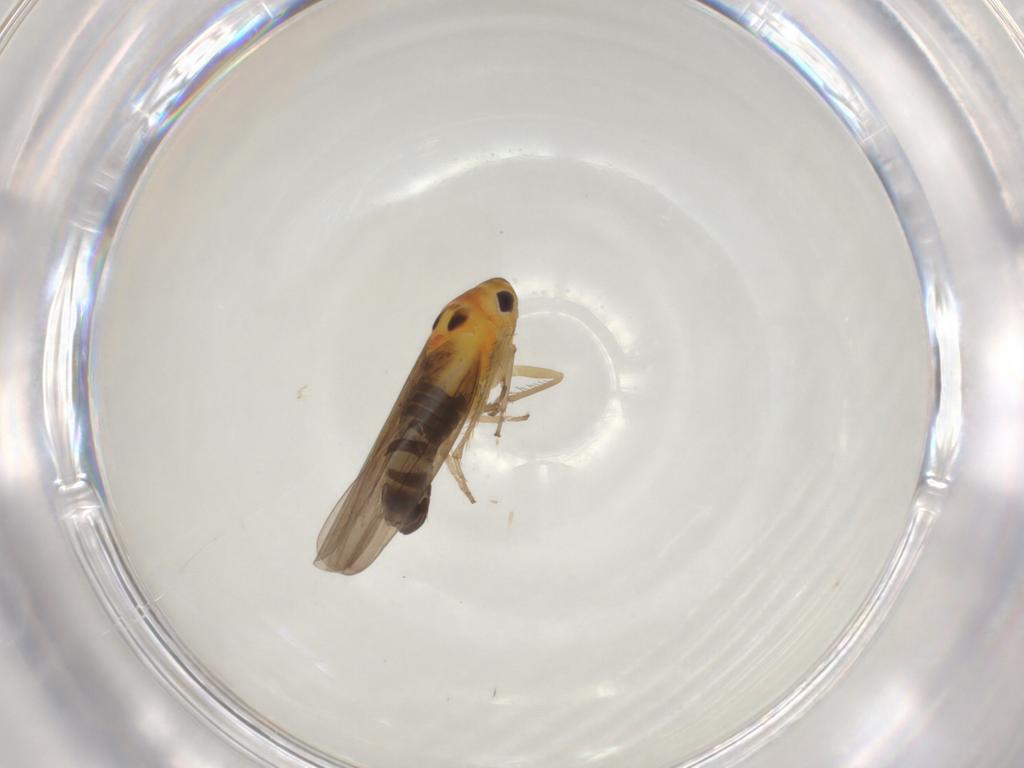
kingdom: Animalia
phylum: Arthropoda
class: Insecta
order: Hemiptera
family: Cicadellidae
